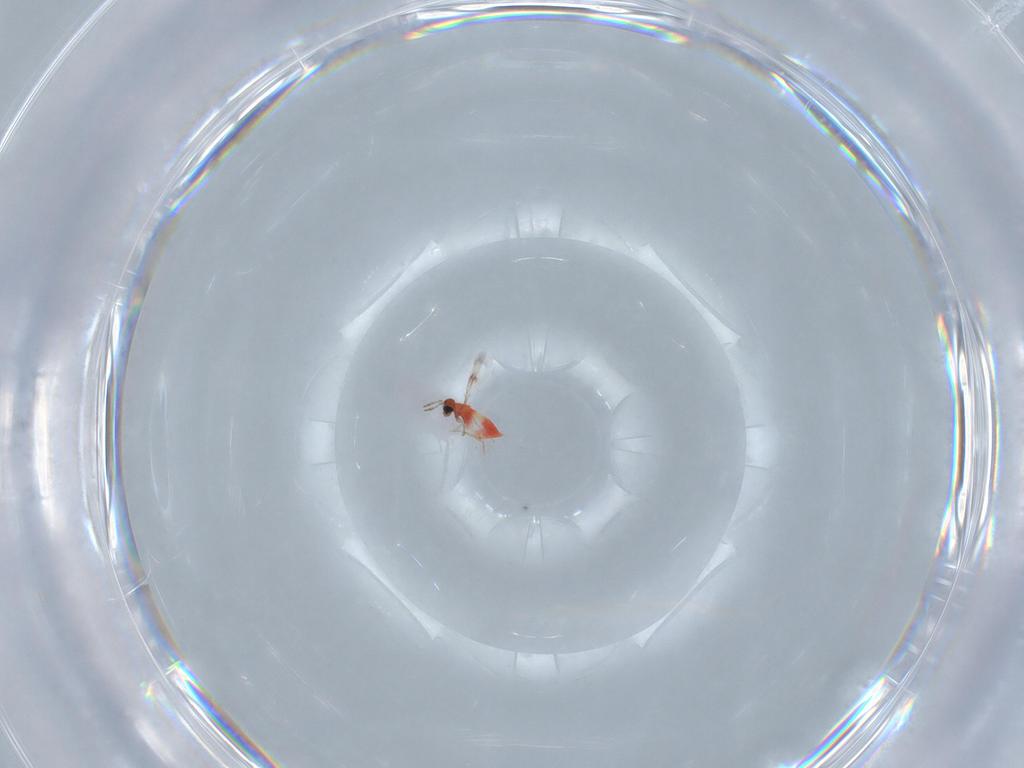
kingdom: Animalia
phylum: Arthropoda
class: Insecta
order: Hymenoptera
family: Trichogrammatidae
